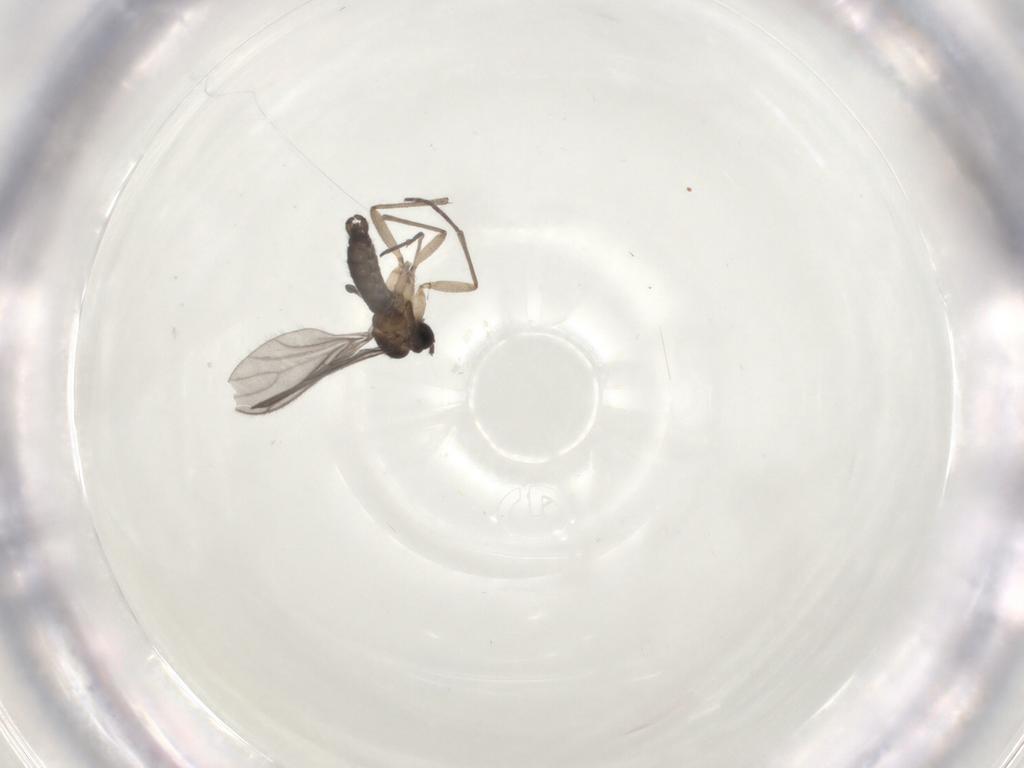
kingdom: Animalia
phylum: Arthropoda
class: Insecta
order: Diptera
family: Sciaridae
